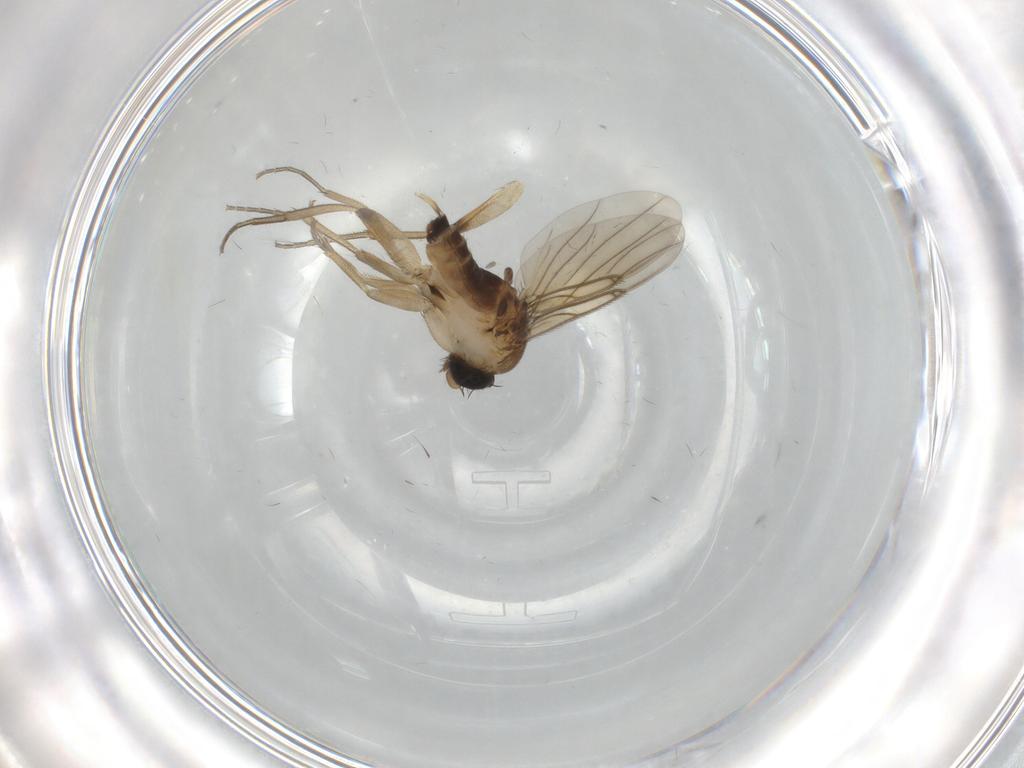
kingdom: Animalia
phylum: Arthropoda
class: Insecta
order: Diptera
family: Phoridae
